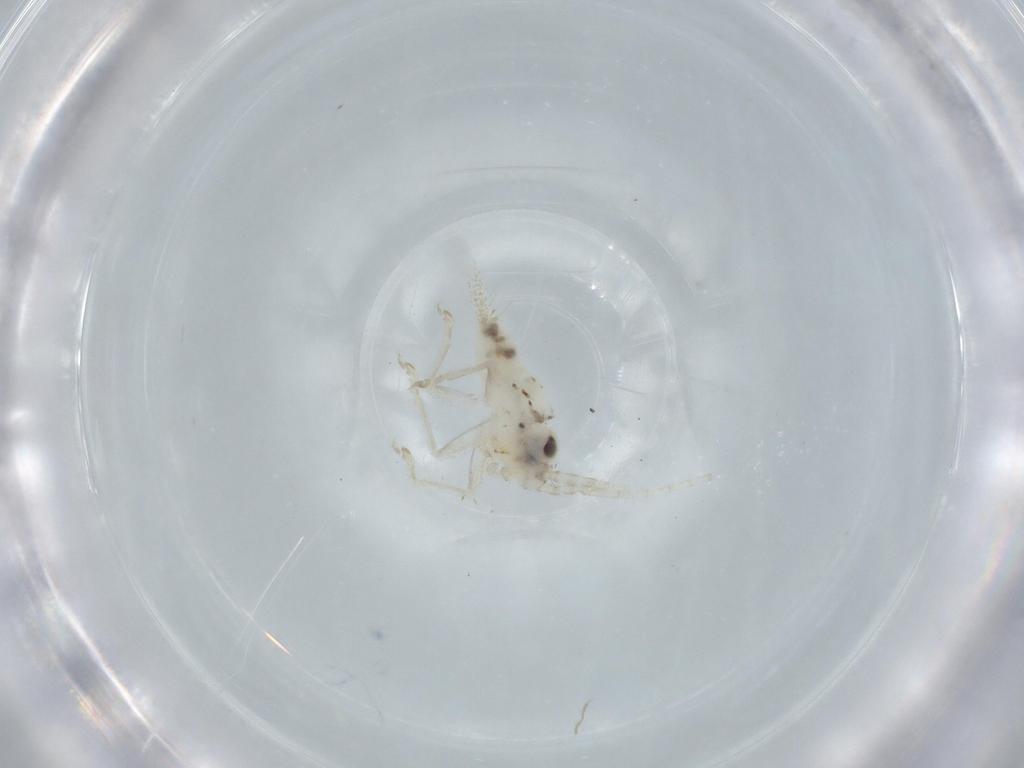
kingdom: Animalia
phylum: Arthropoda
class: Insecta
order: Orthoptera
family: Trigonidiidae
